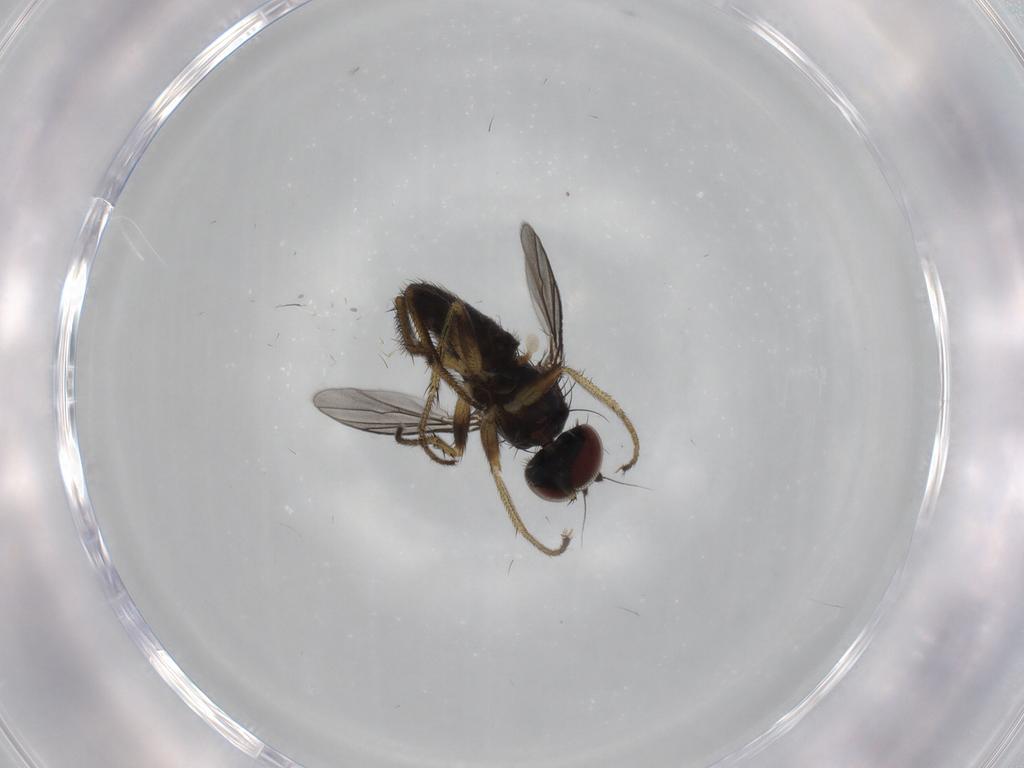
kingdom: Animalia
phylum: Arthropoda
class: Insecta
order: Diptera
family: Dolichopodidae
